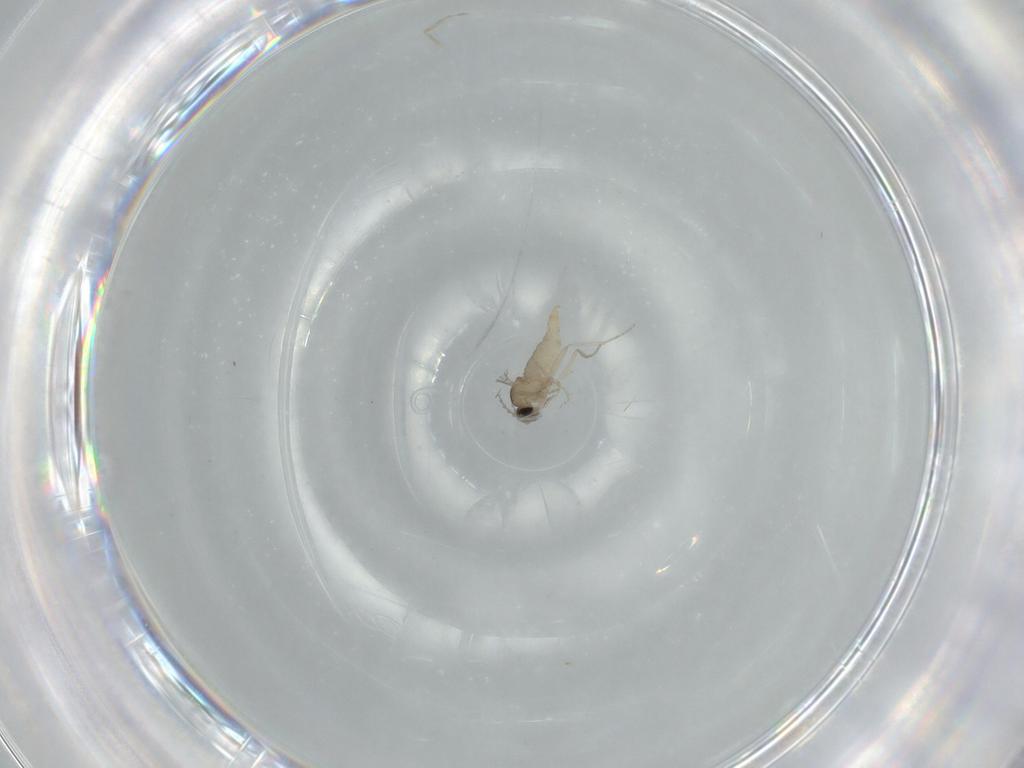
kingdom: Animalia
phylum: Arthropoda
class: Insecta
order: Diptera
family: Cecidomyiidae
